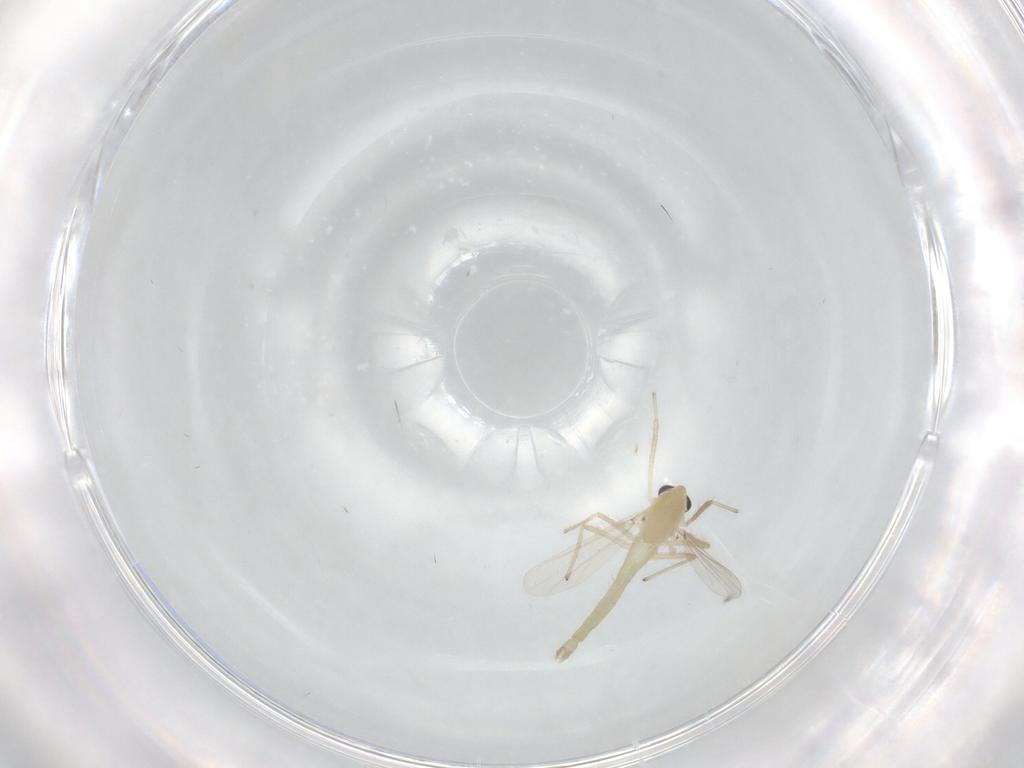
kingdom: Animalia
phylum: Arthropoda
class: Insecta
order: Diptera
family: Chironomidae
